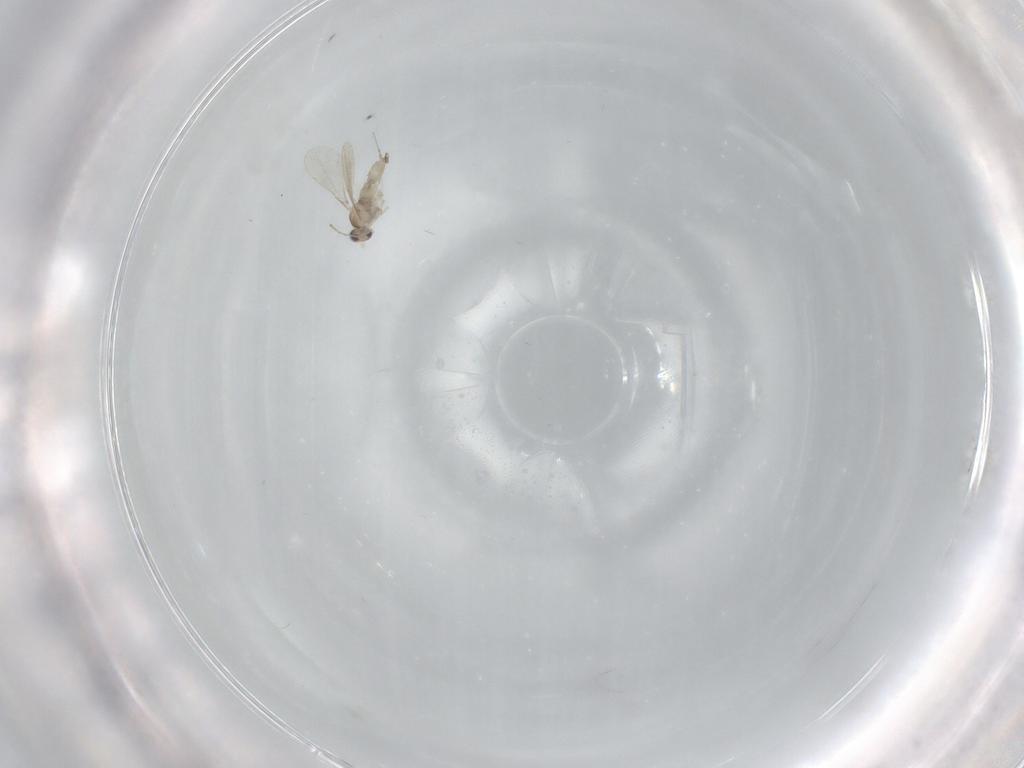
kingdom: Animalia
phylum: Arthropoda
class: Insecta
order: Diptera
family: Cecidomyiidae
